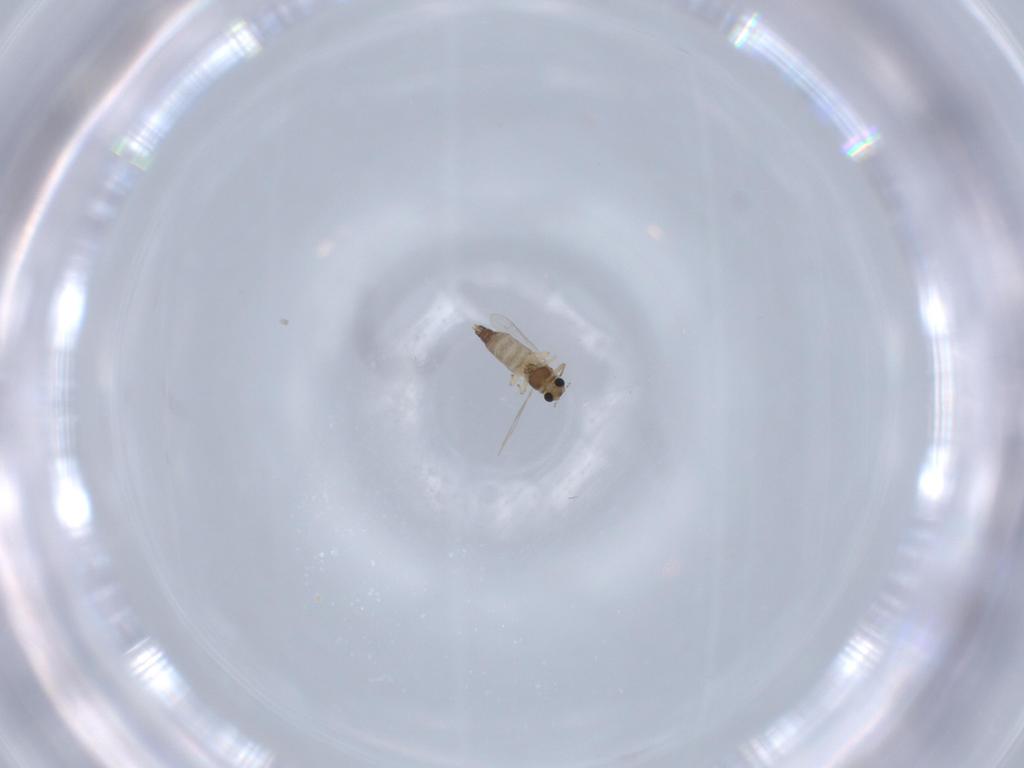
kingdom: Animalia
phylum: Arthropoda
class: Insecta
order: Diptera
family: Chironomidae
